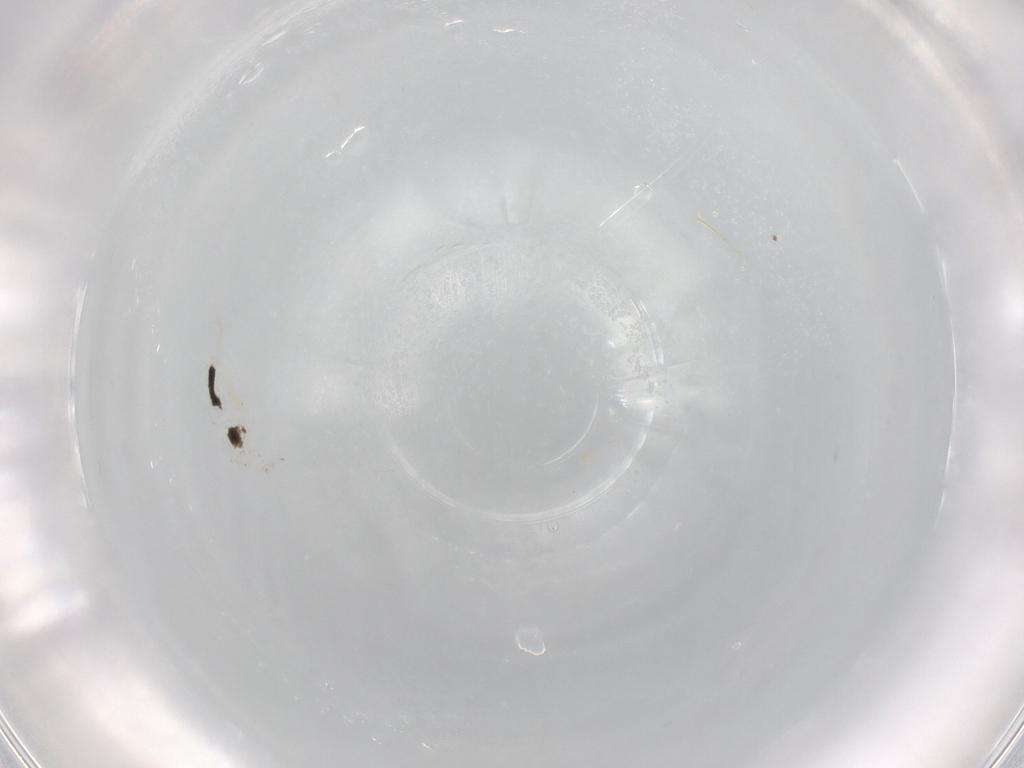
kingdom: Animalia
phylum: Arthropoda
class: Collembola
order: Entomobryomorpha
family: Entomobryidae
